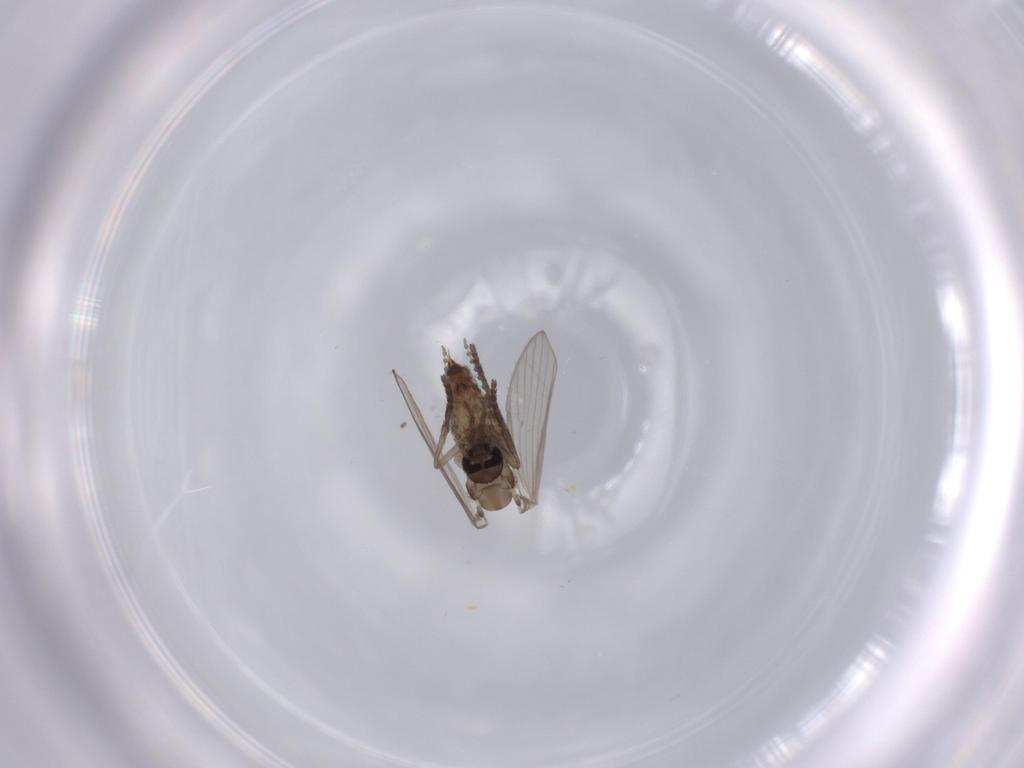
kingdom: Animalia
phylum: Arthropoda
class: Insecta
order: Diptera
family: Psychodidae
